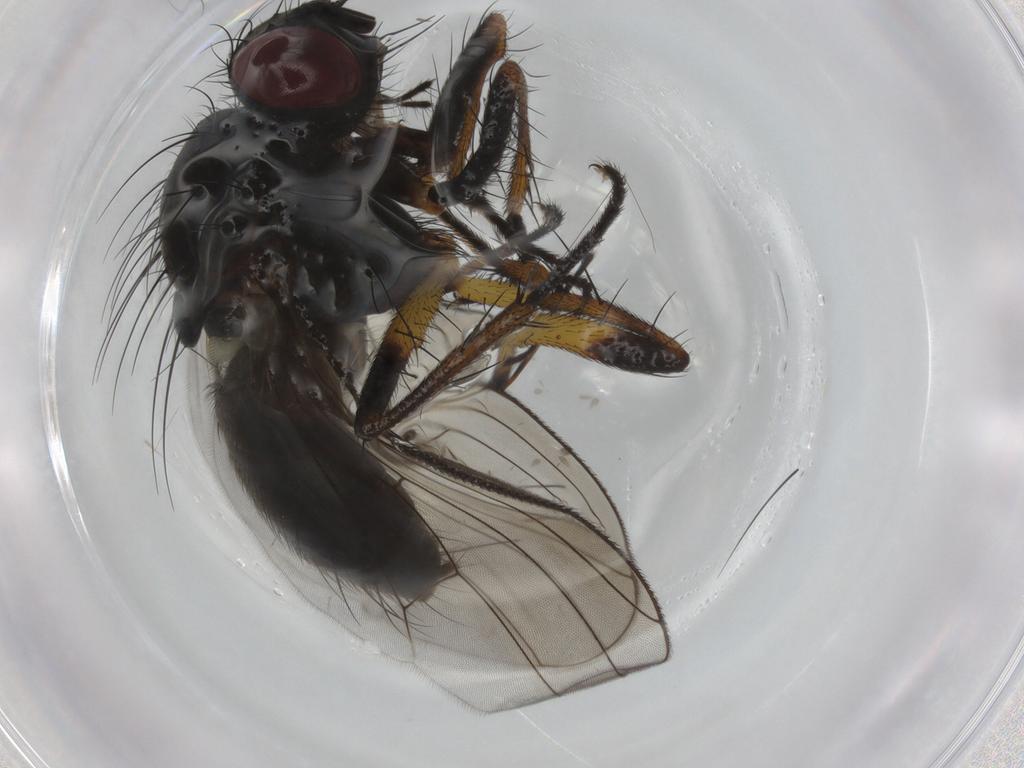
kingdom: Animalia
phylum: Arthropoda
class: Insecta
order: Diptera
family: Muscidae
